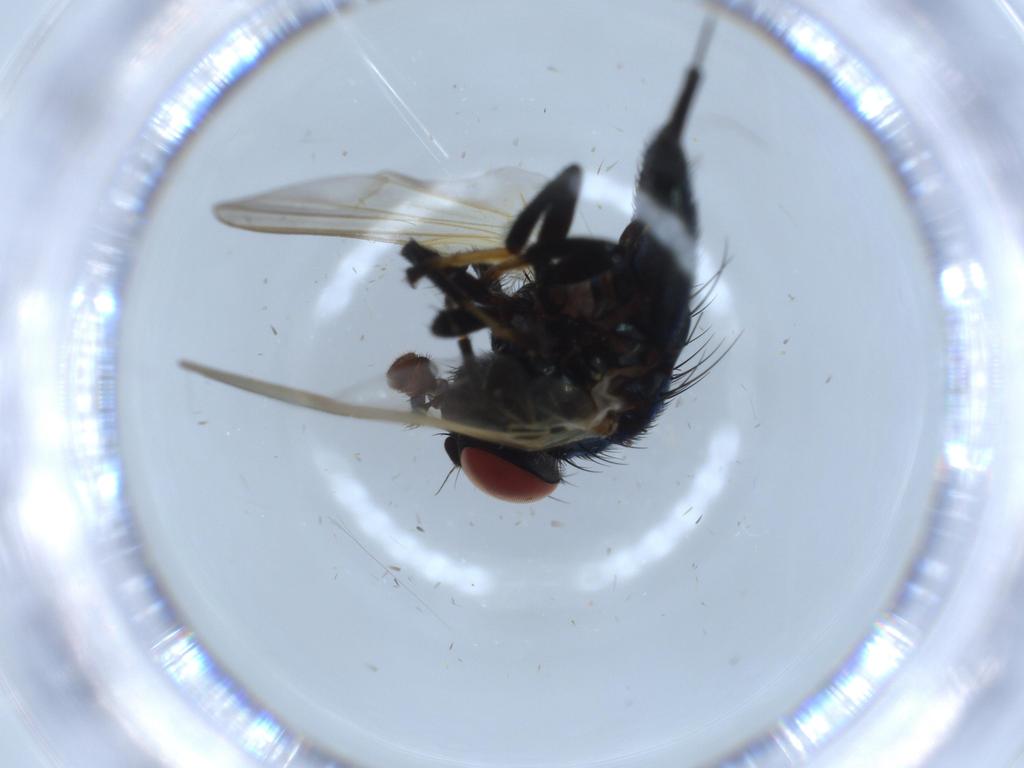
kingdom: Animalia
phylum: Arthropoda
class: Insecta
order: Diptera
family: Lonchaeidae
